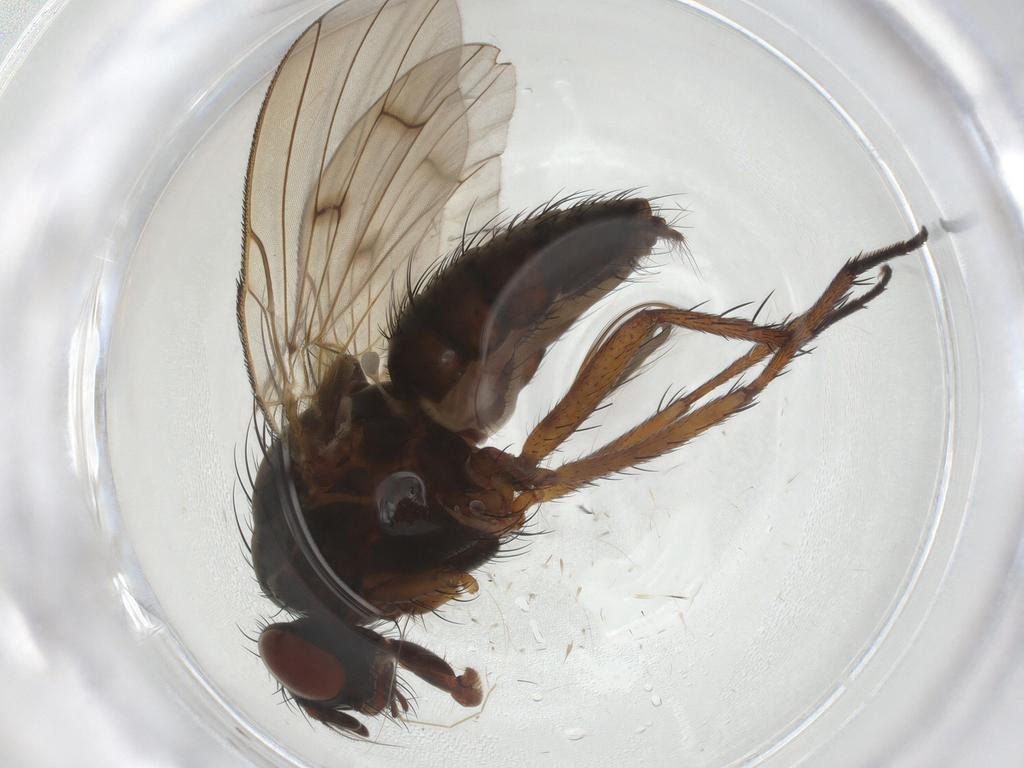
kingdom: Animalia
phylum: Arthropoda
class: Insecta
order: Diptera
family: Anthomyiidae
